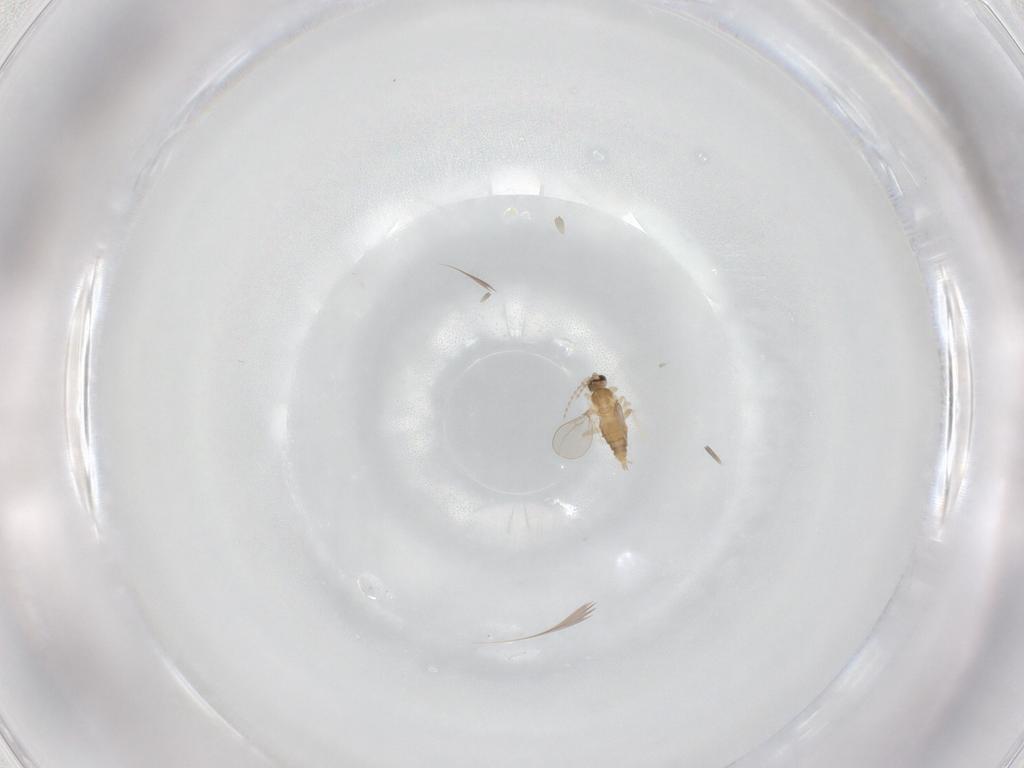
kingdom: Animalia
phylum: Arthropoda
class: Insecta
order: Diptera
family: Cecidomyiidae
